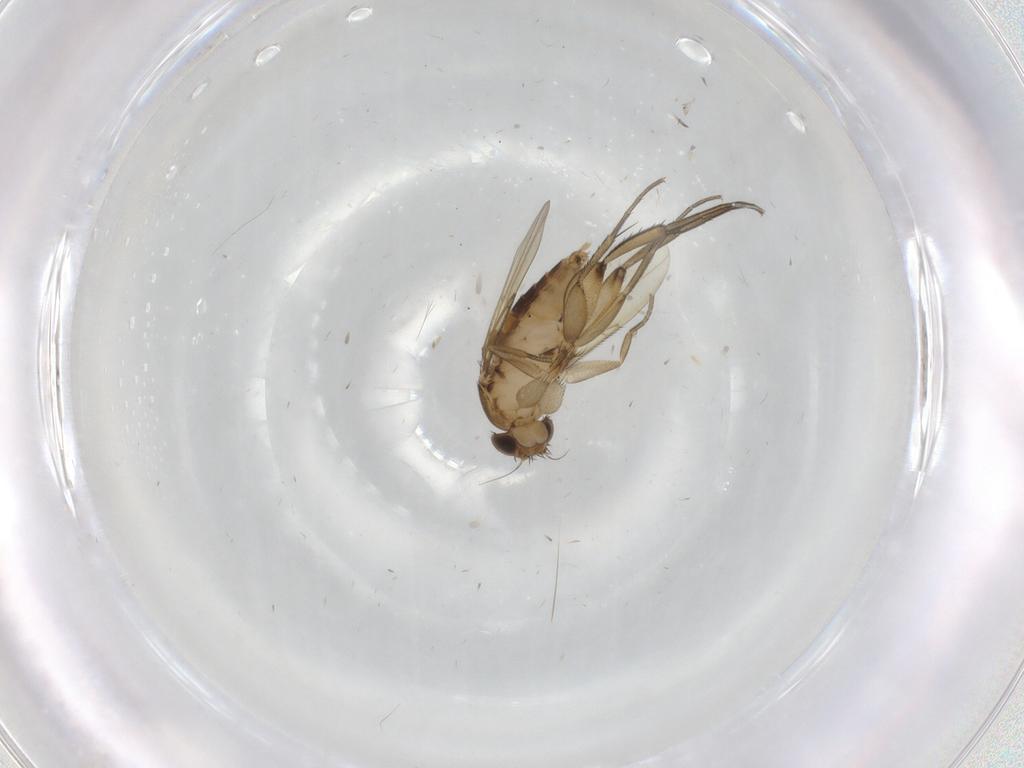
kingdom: Animalia
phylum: Arthropoda
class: Insecta
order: Diptera
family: Phoridae
